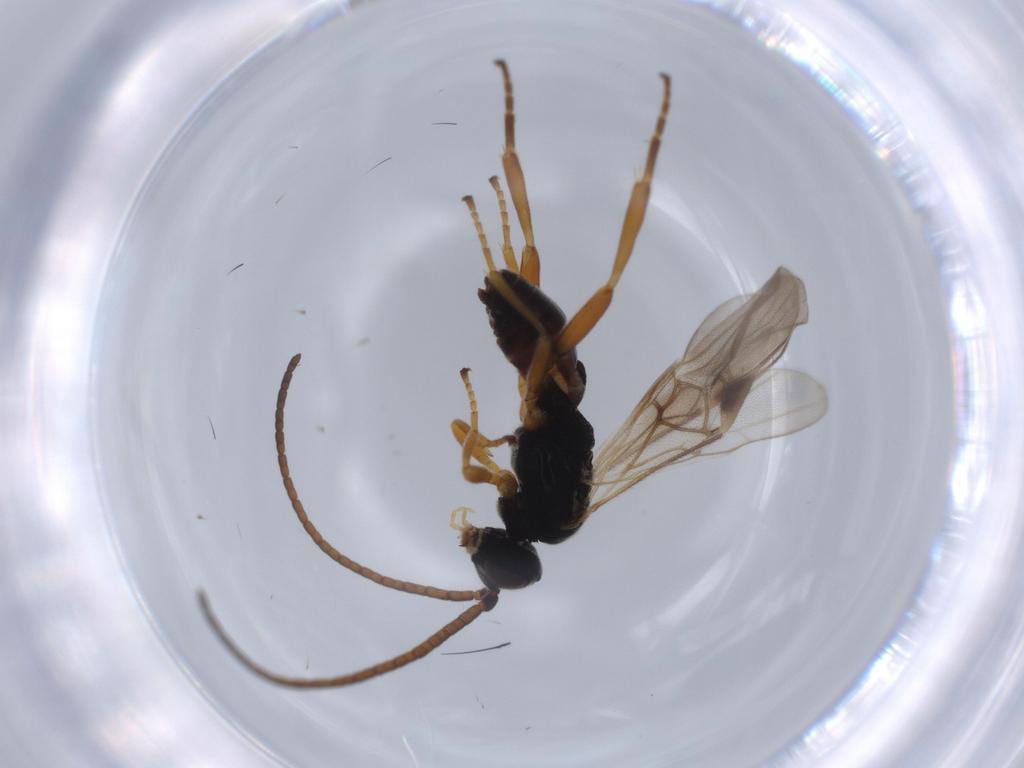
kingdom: Animalia
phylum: Arthropoda
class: Insecta
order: Hymenoptera
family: Braconidae
